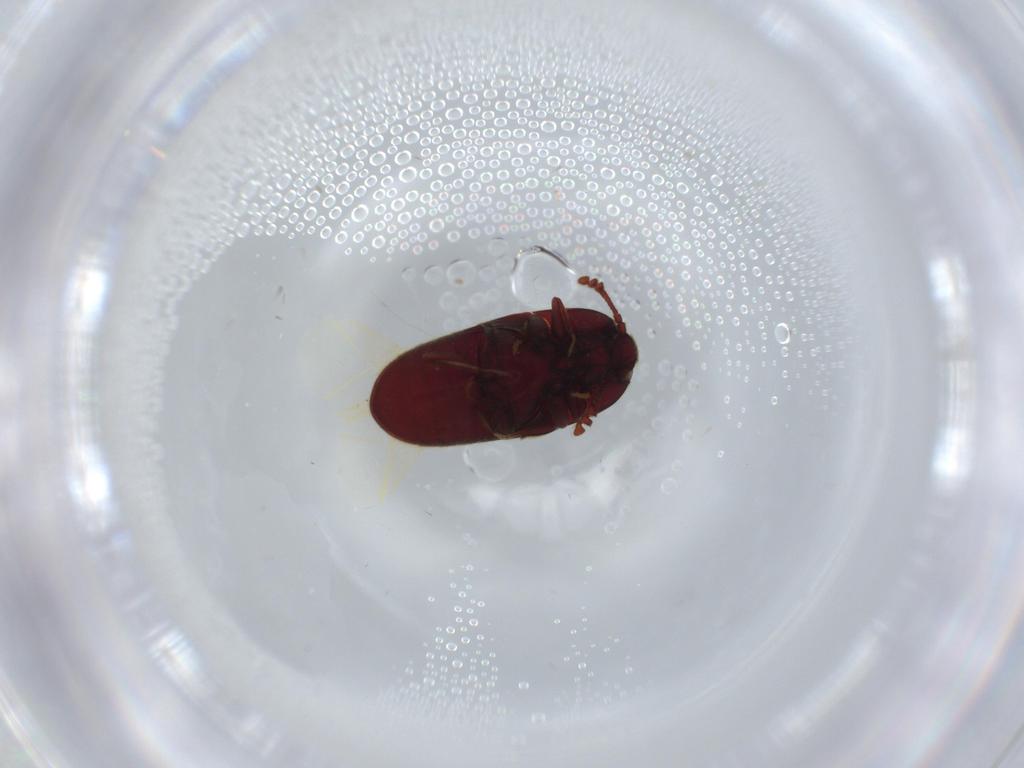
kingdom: Animalia
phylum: Arthropoda
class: Insecta
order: Coleoptera
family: Throscidae
